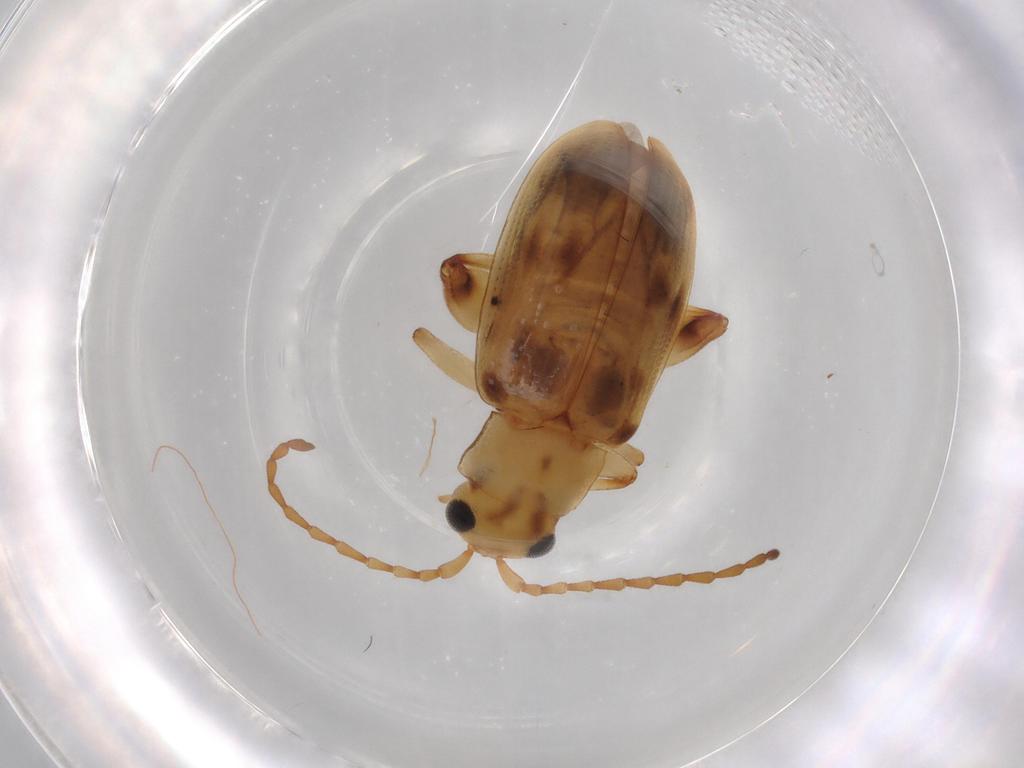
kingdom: Animalia
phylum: Arthropoda
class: Insecta
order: Coleoptera
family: Chrysomelidae
